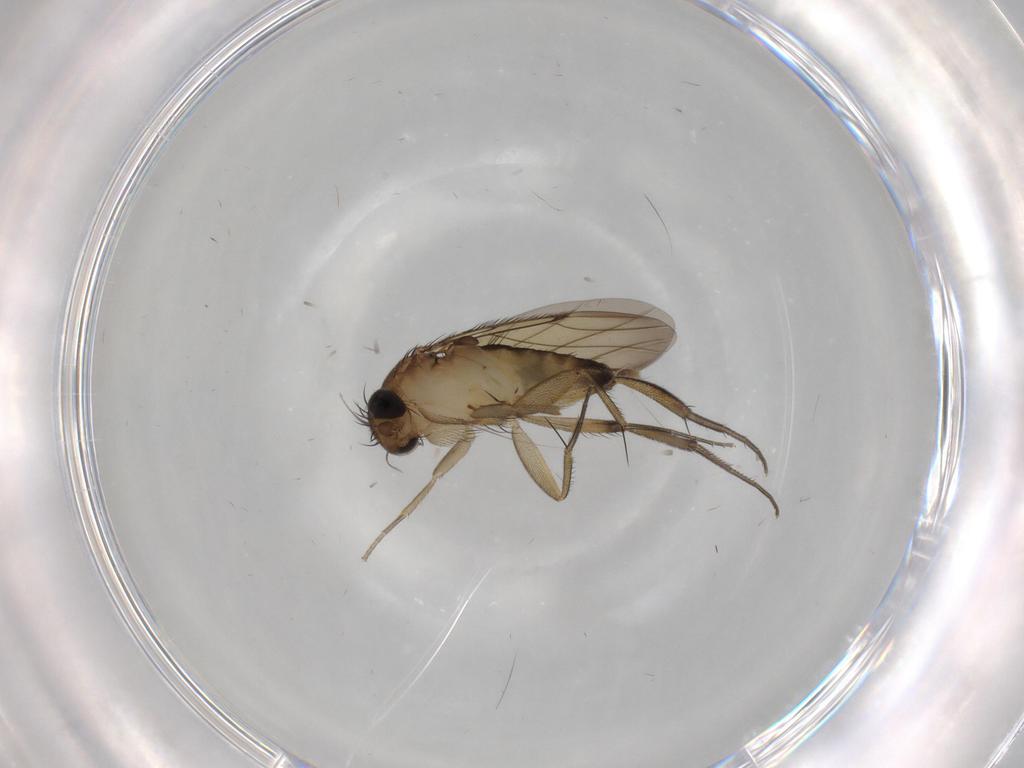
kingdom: Animalia
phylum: Arthropoda
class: Insecta
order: Diptera
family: Phoridae
